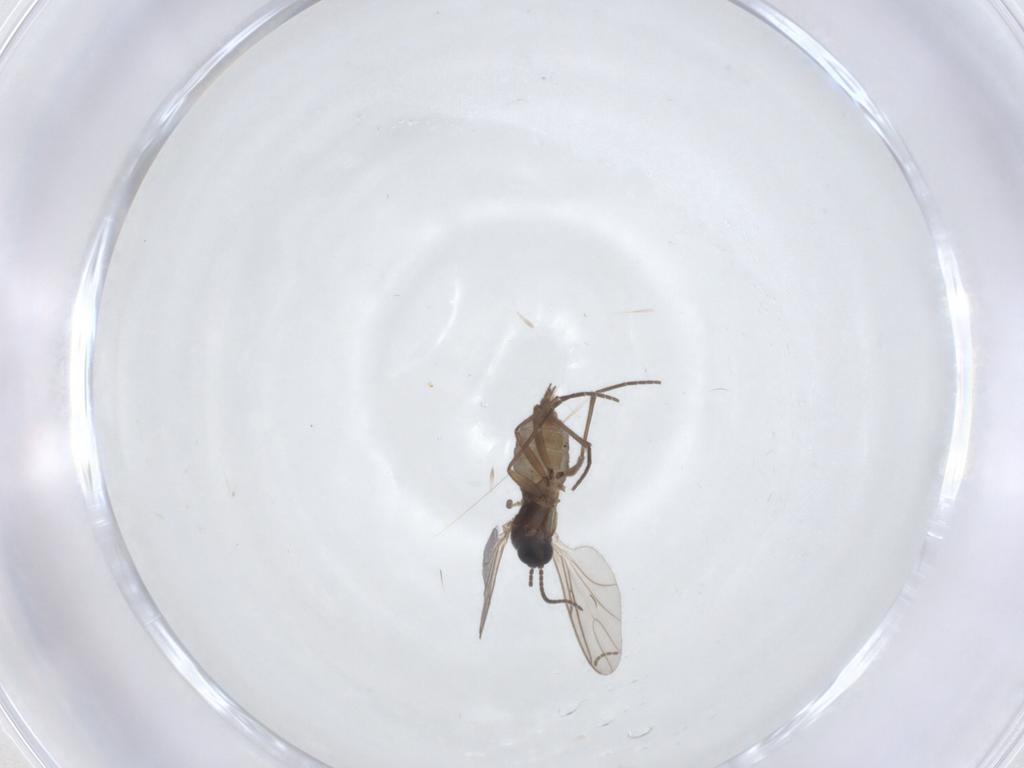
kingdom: Animalia
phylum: Arthropoda
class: Insecta
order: Diptera
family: Sciaridae
